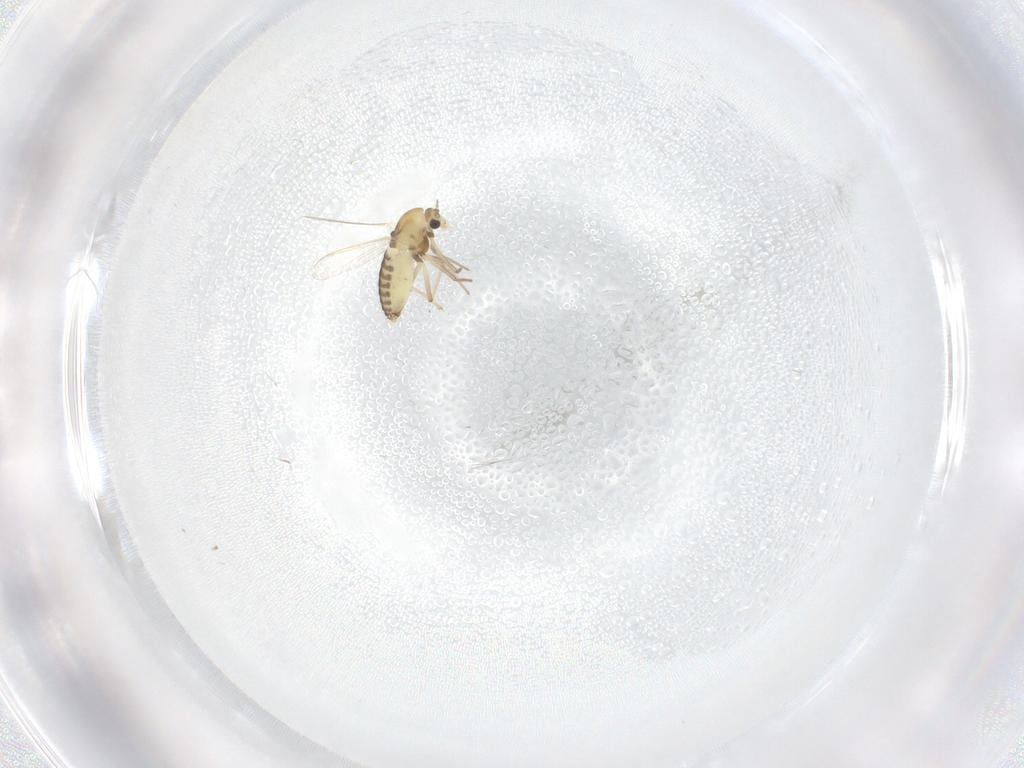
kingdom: Animalia
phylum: Arthropoda
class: Insecta
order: Diptera
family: Chironomidae
